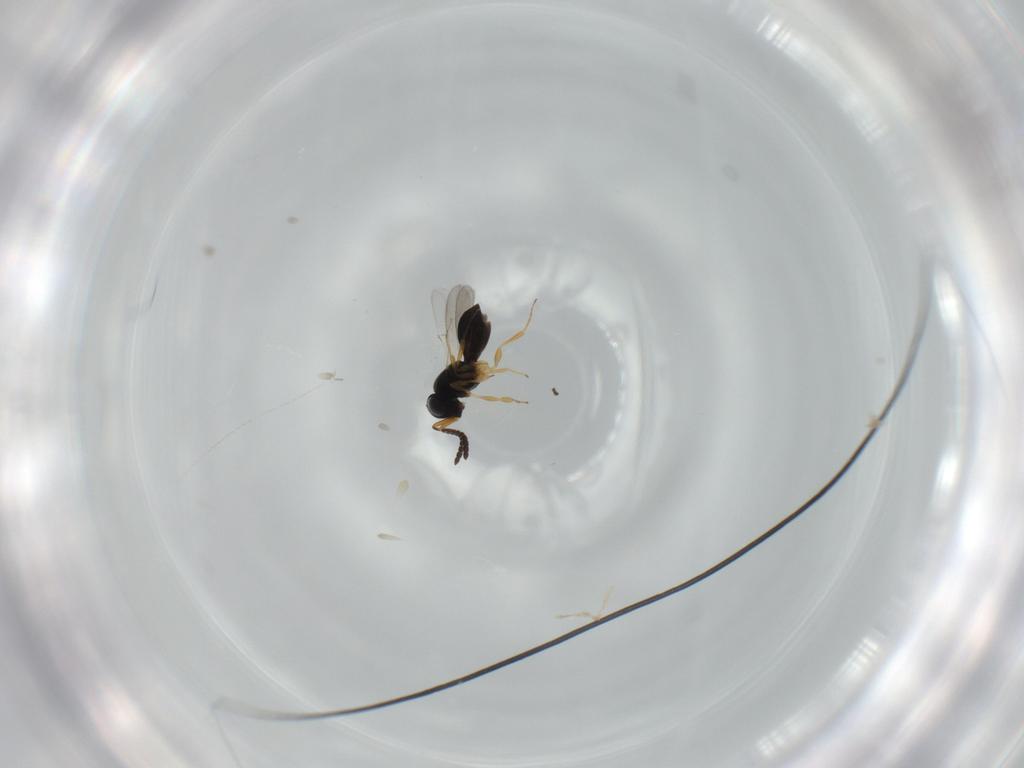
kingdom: Animalia
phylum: Arthropoda
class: Insecta
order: Hymenoptera
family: Scelionidae
